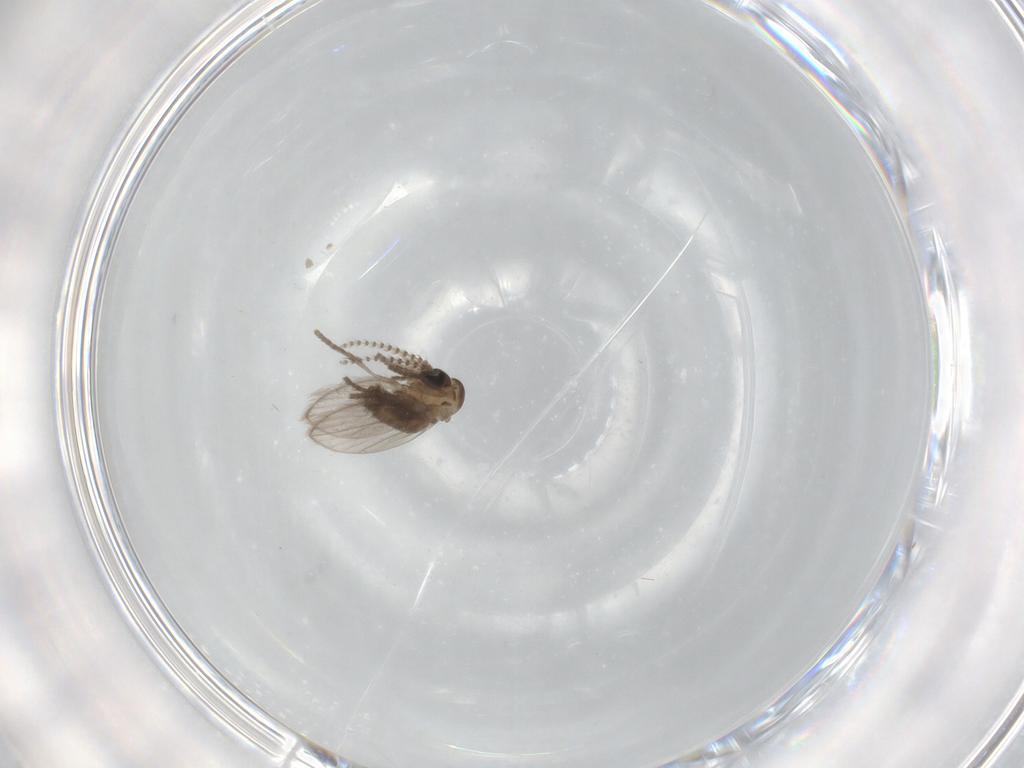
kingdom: Animalia
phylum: Arthropoda
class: Insecta
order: Diptera
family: Psychodidae
